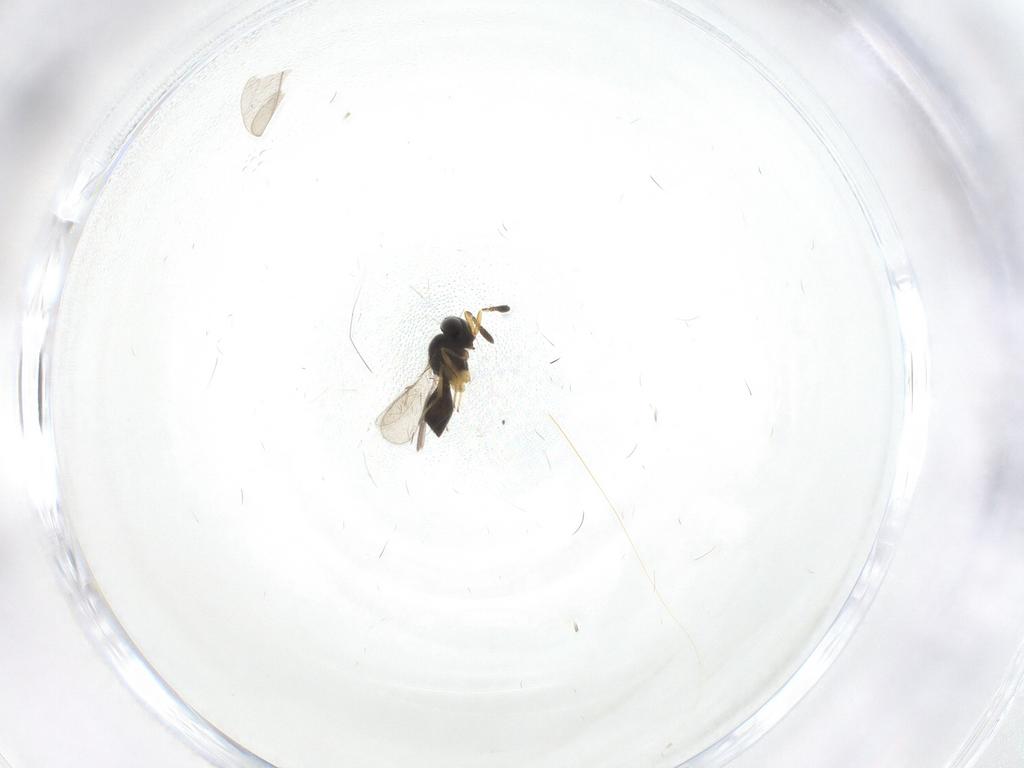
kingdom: Animalia
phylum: Arthropoda
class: Insecta
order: Hymenoptera
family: Scelionidae
